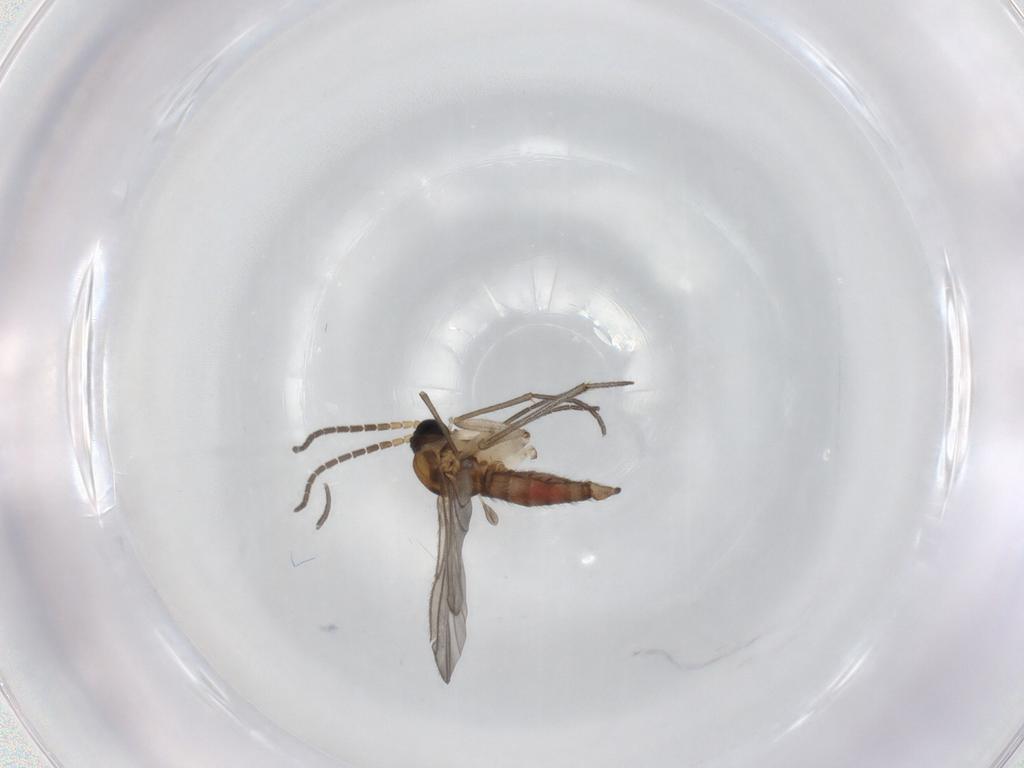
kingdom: Animalia
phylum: Arthropoda
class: Insecta
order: Diptera
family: Sciaridae
